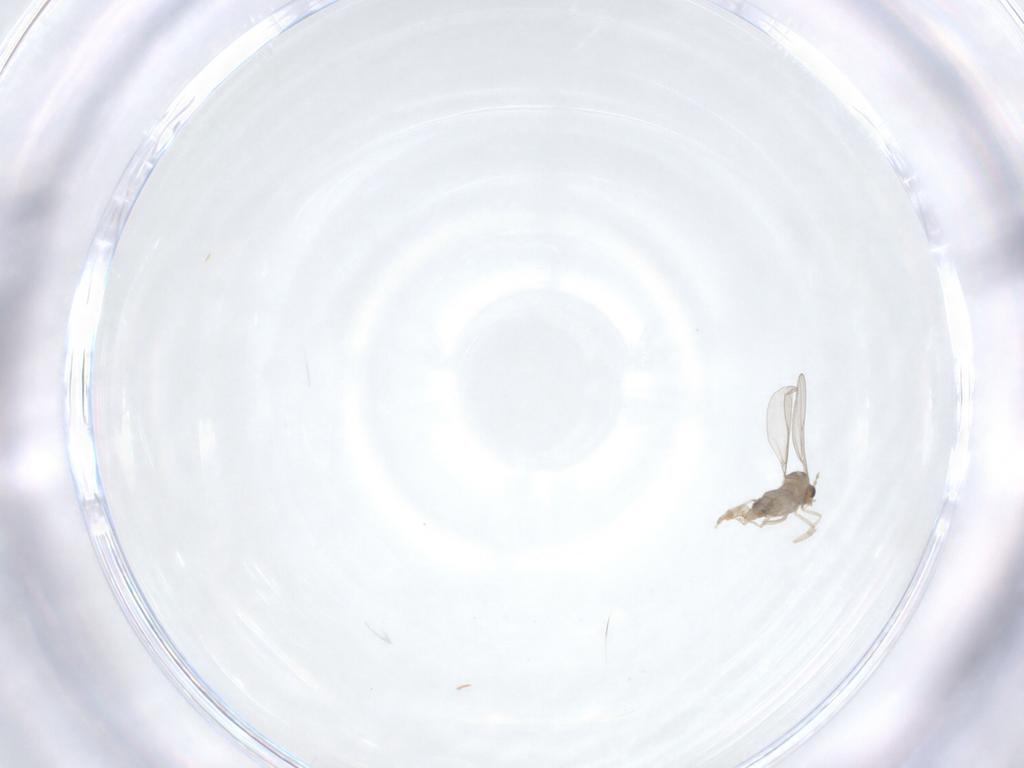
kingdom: Animalia
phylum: Arthropoda
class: Insecta
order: Diptera
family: Cecidomyiidae
